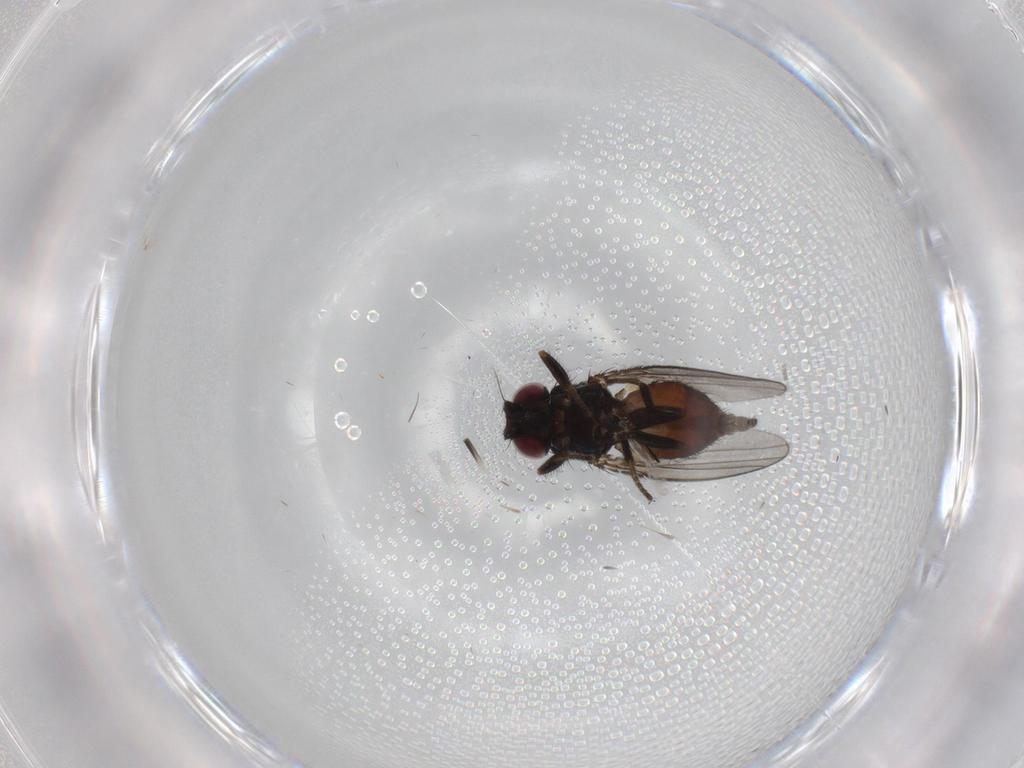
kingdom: Animalia
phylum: Arthropoda
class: Insecta
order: Diptera
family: Milichiidae
